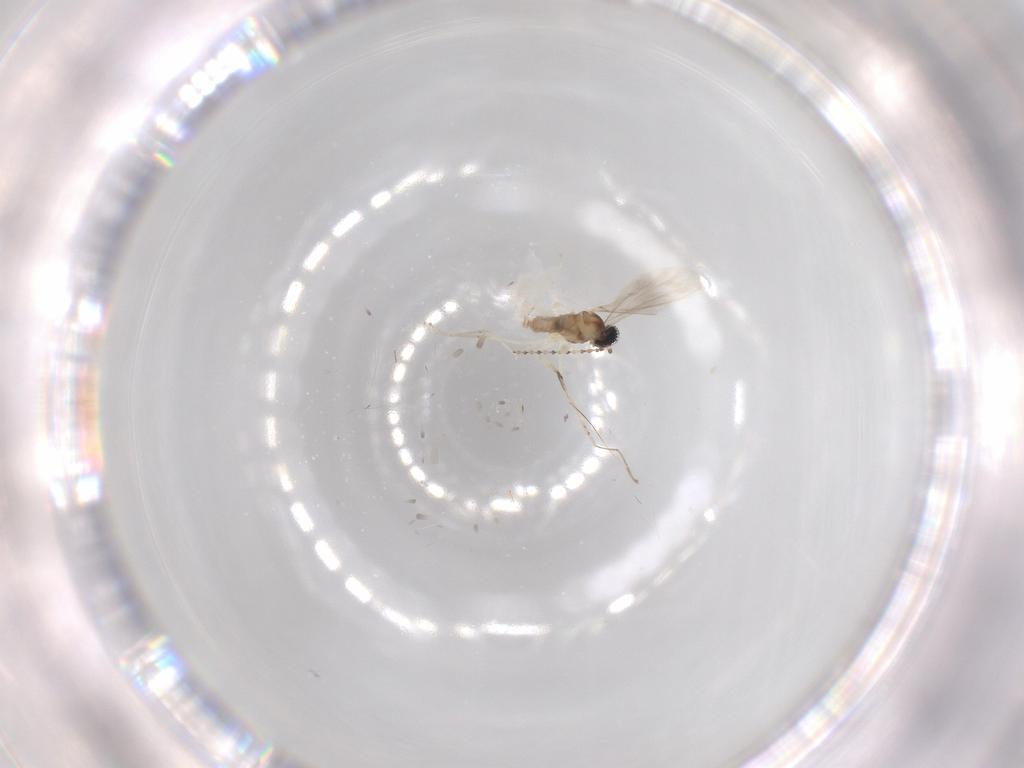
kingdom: Animalia
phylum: Arthropoda
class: Insecta
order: Diptera
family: Cecidomyiidae
